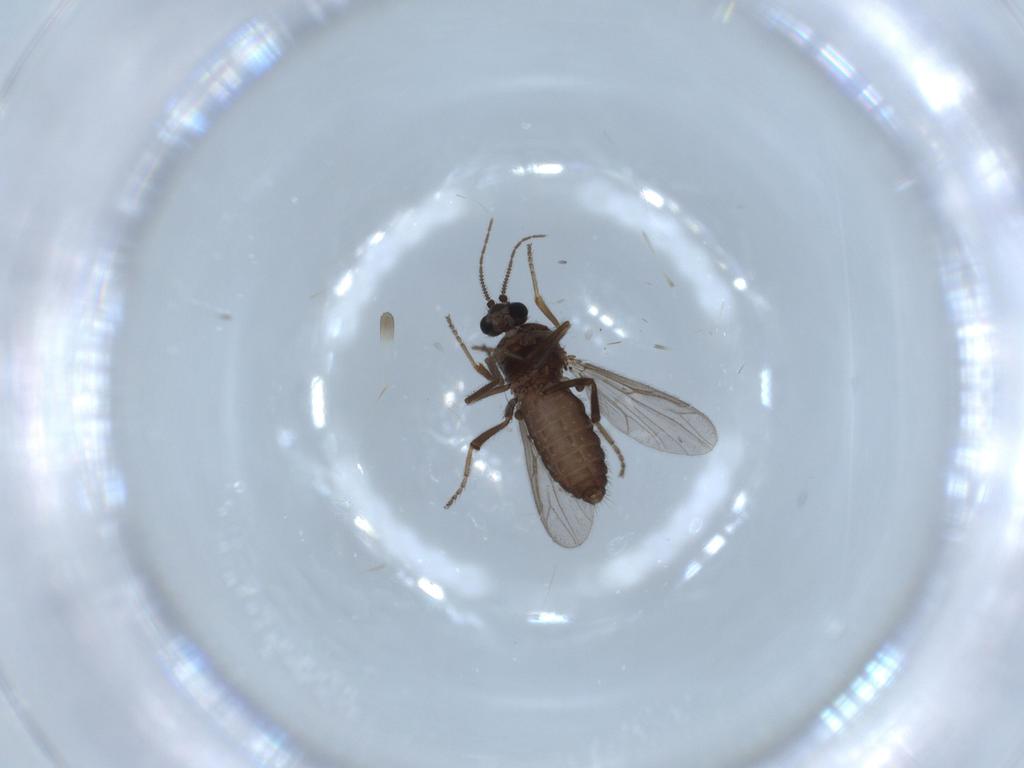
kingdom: Animalia
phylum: Arthropoda
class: Insecta
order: Diptera
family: Ceratopogonidae
